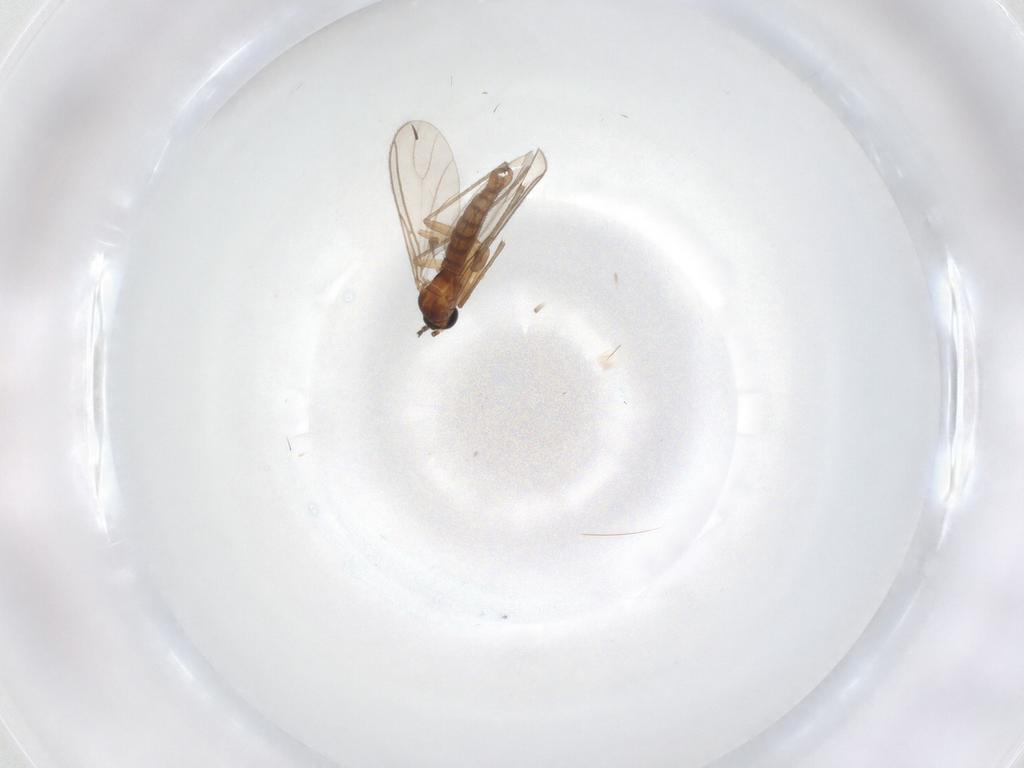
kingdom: Animalia
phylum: Arthropoda
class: Insecta
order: Diptera
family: Sciaridae
